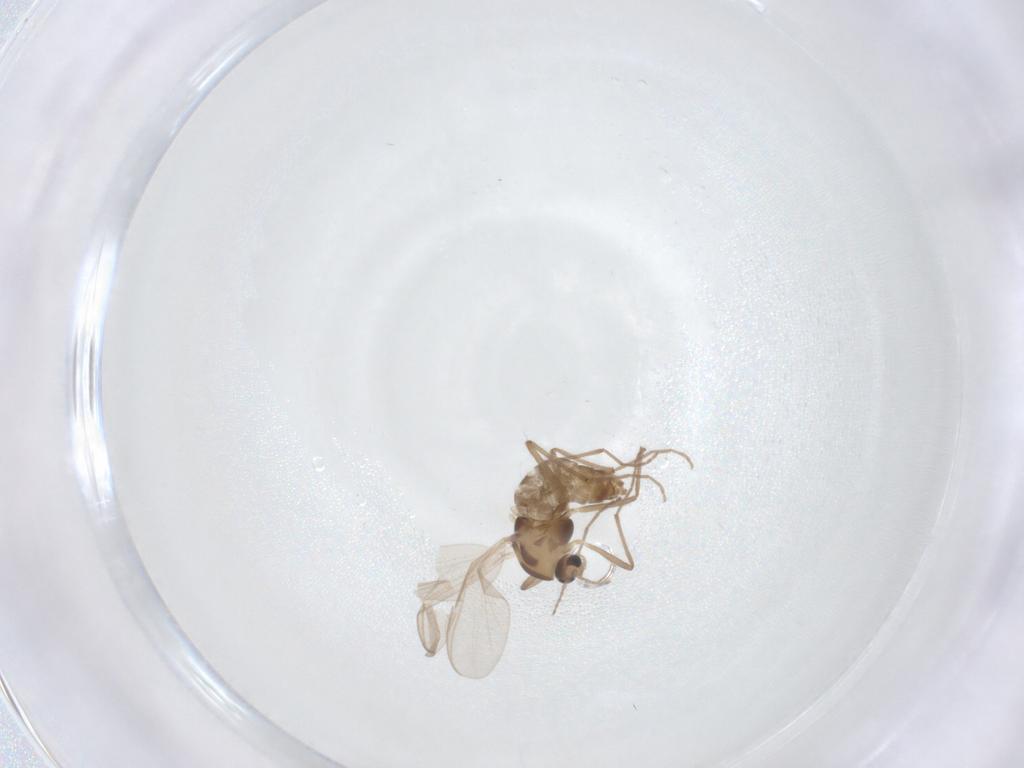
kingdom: Animalia
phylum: Arthropoda
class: Insecta
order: Diptera
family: Chironomidae
